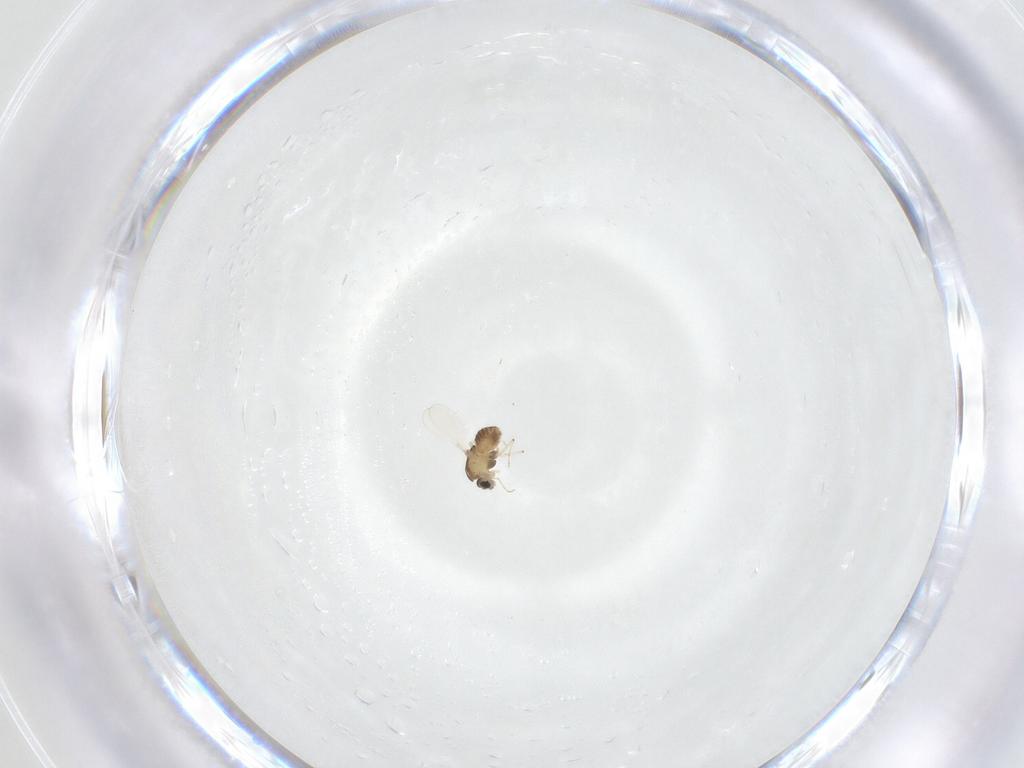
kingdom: Animalia
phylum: Arthropoda
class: Insecta
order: Diptera
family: Chironomidae
